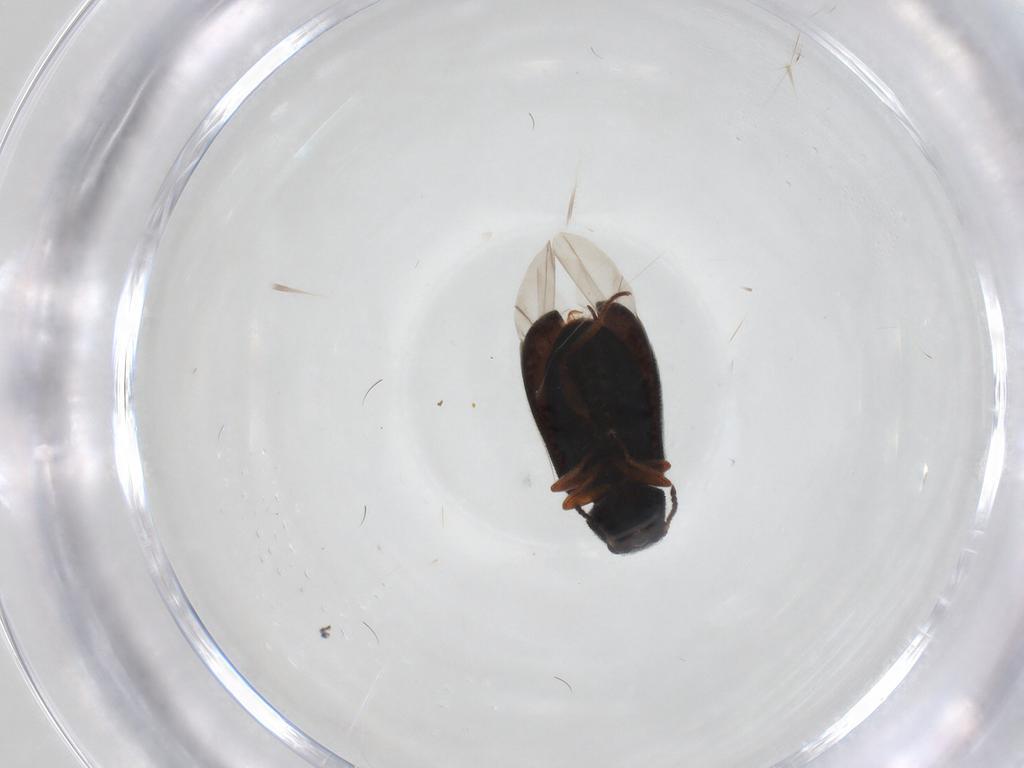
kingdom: Animalia
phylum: Arthropoda
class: Insecta
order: Coleoptera
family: Melyridae
